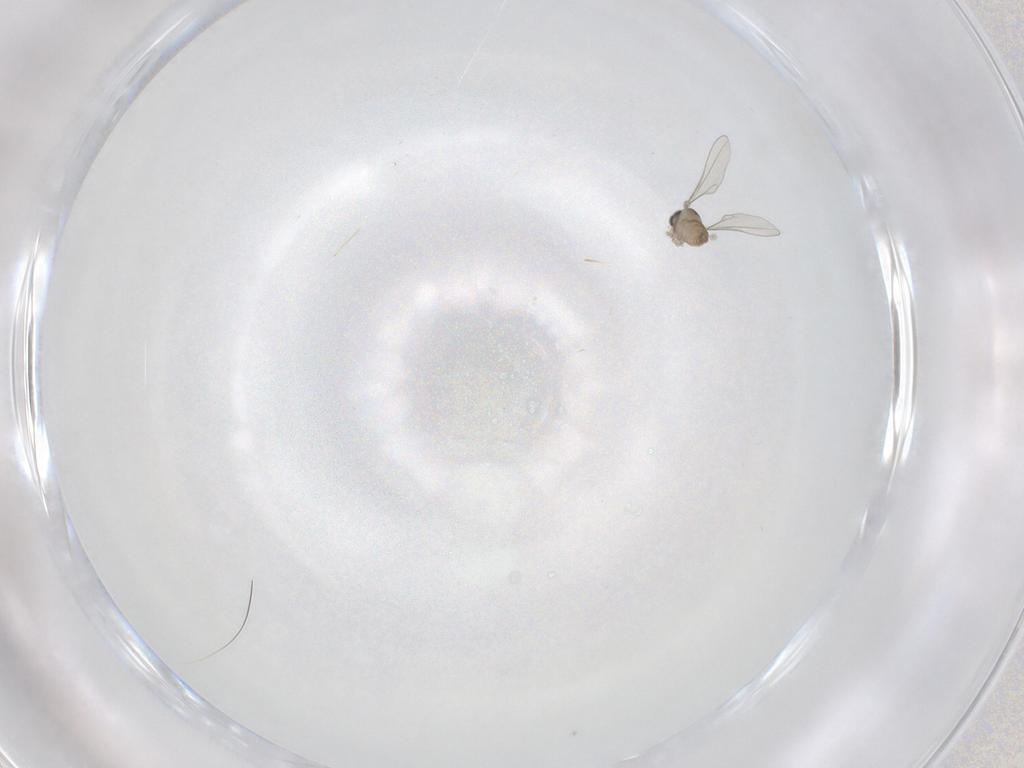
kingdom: Animalia
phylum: Arthropoda
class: Insecta
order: Diptera
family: Cecidomyiidae
